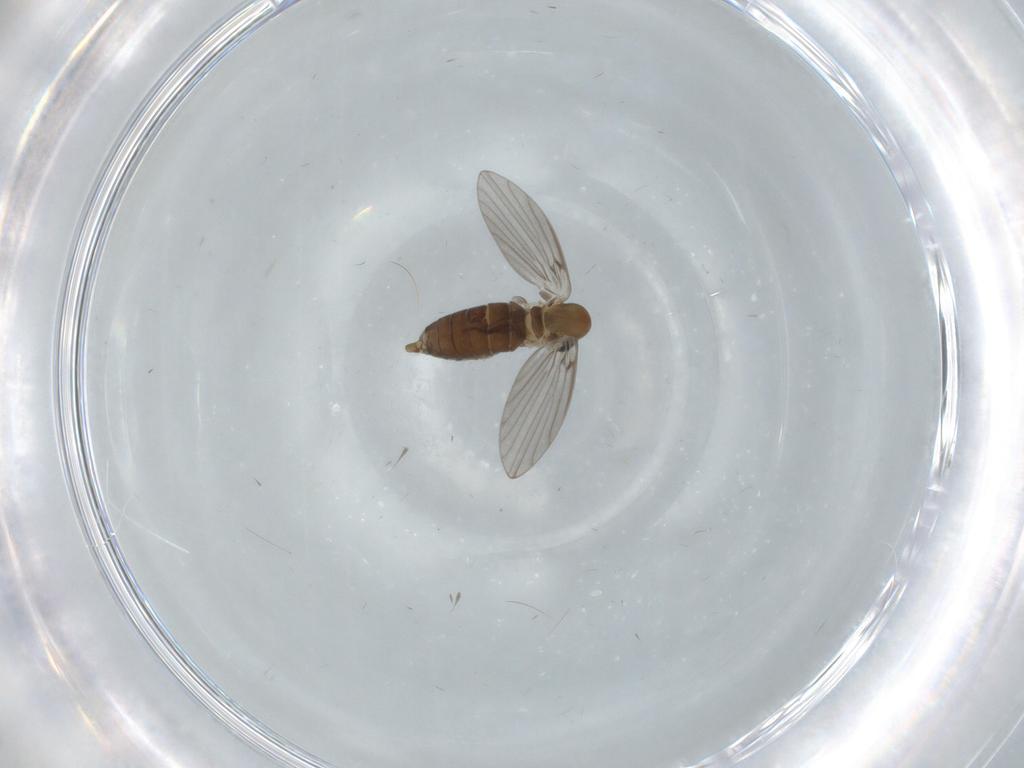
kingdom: Animalia
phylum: Arthropoda
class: Insecta
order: Diptera
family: Psychodidae
